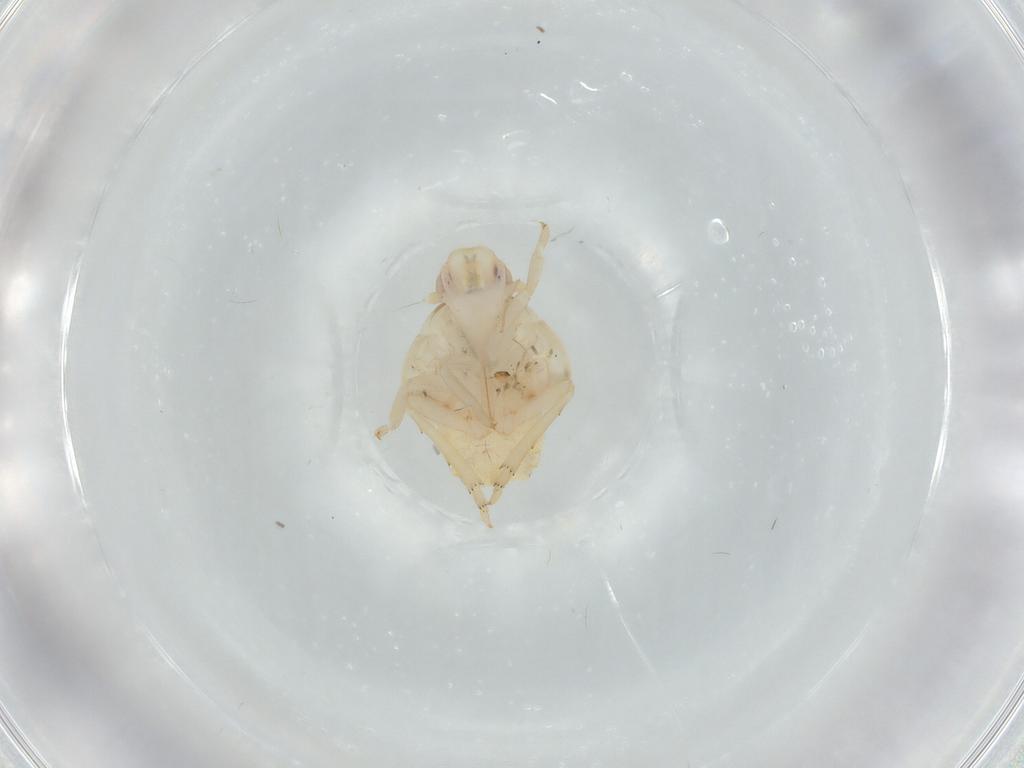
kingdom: Animalia
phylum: Arthropoda
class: Insecta
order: Hemiptera
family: Flatidae
